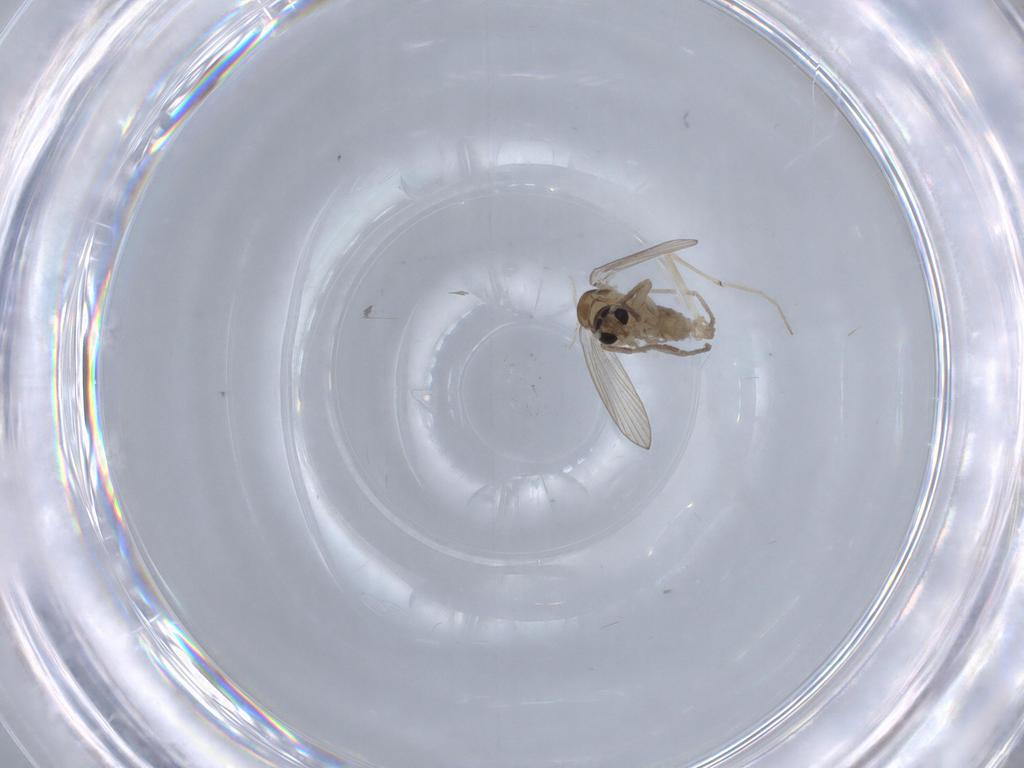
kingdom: Animalia
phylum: Arthropoda
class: Insecta
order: Diptera
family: Psychodidae
